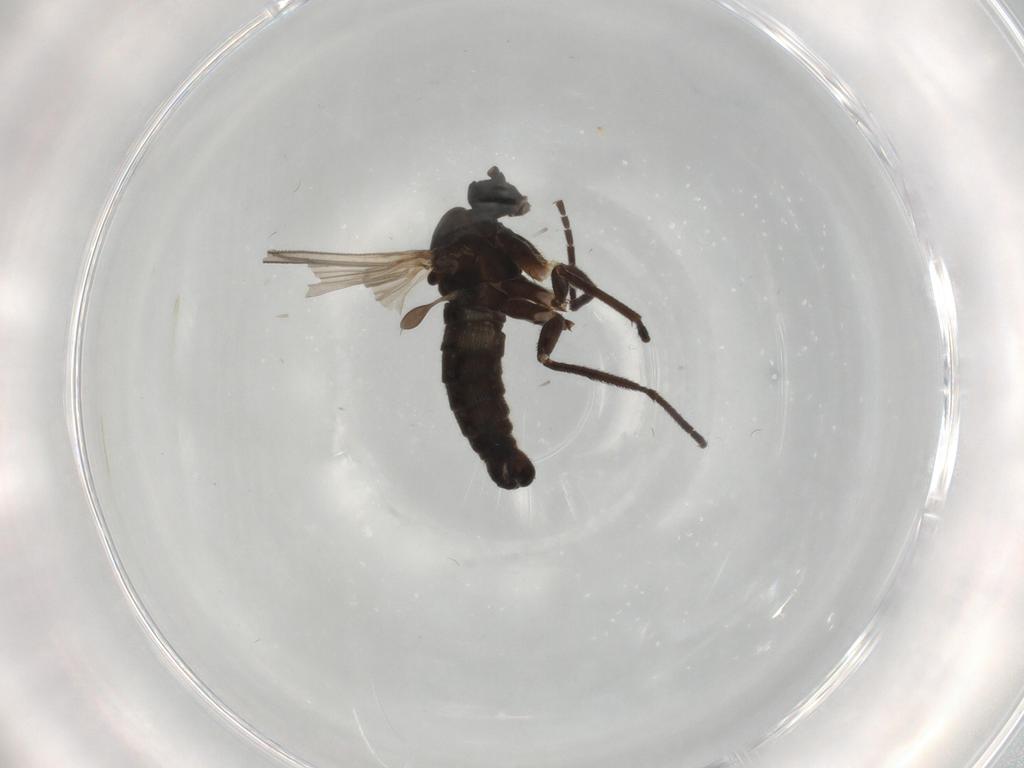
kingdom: Animalia
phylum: Arthropoda
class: Insecta
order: Diptera
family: Sciaridae
